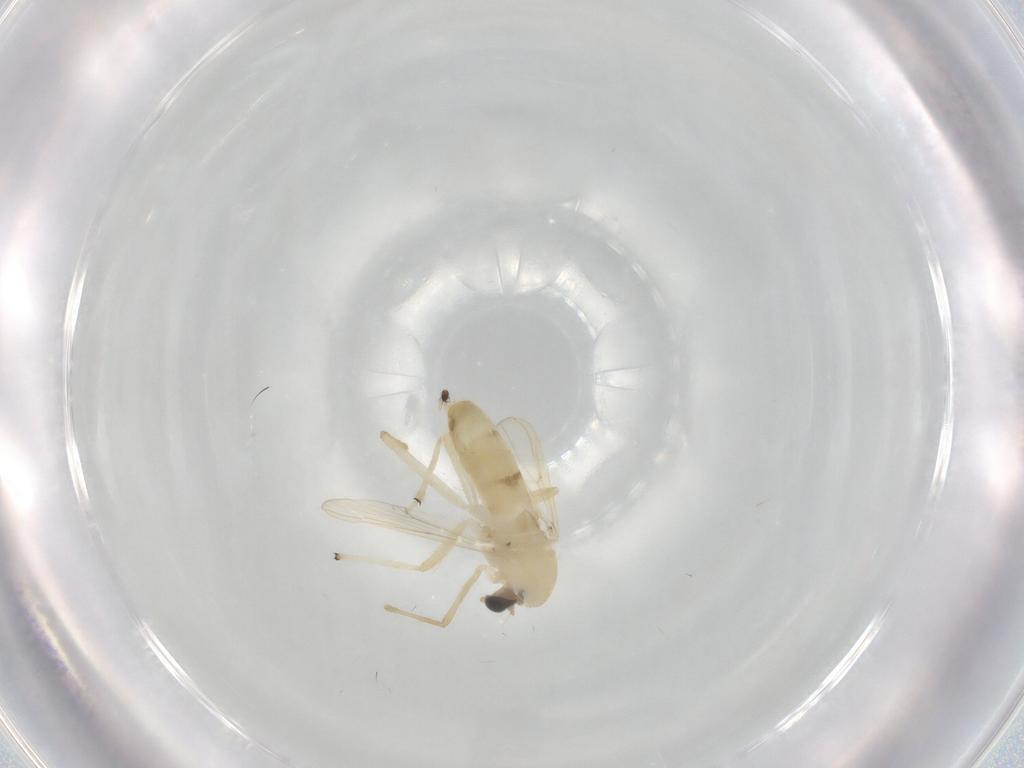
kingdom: Animalia
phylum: Arthropoda
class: Insecta
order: Diptera
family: Chironomidae
